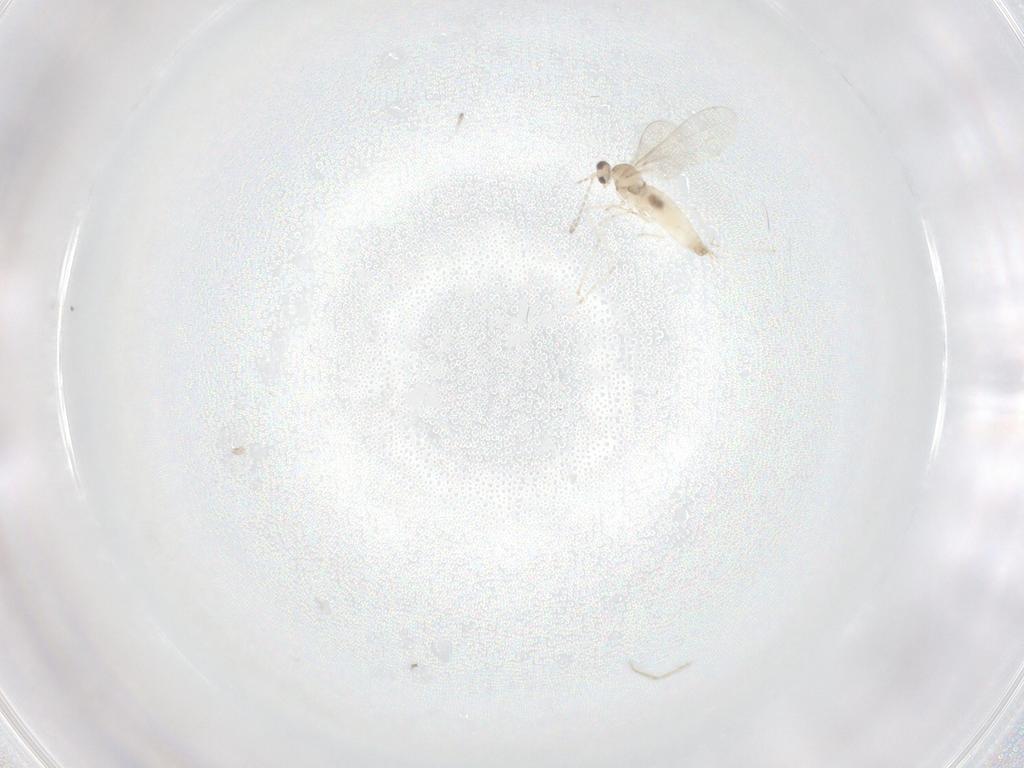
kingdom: Animalia
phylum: Arthropoda
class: Insecta
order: Diptera
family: Cecidomyiidae
